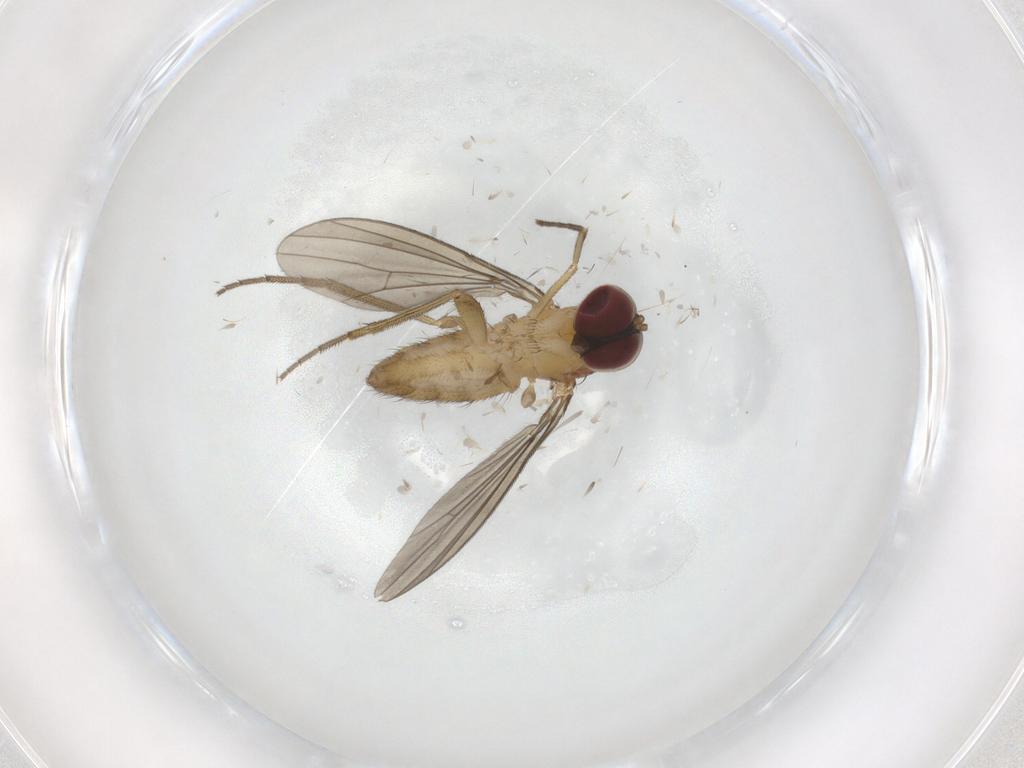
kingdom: Animalia
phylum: Arthropoda
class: Insecta
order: Diptera
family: Dolichopodidae
